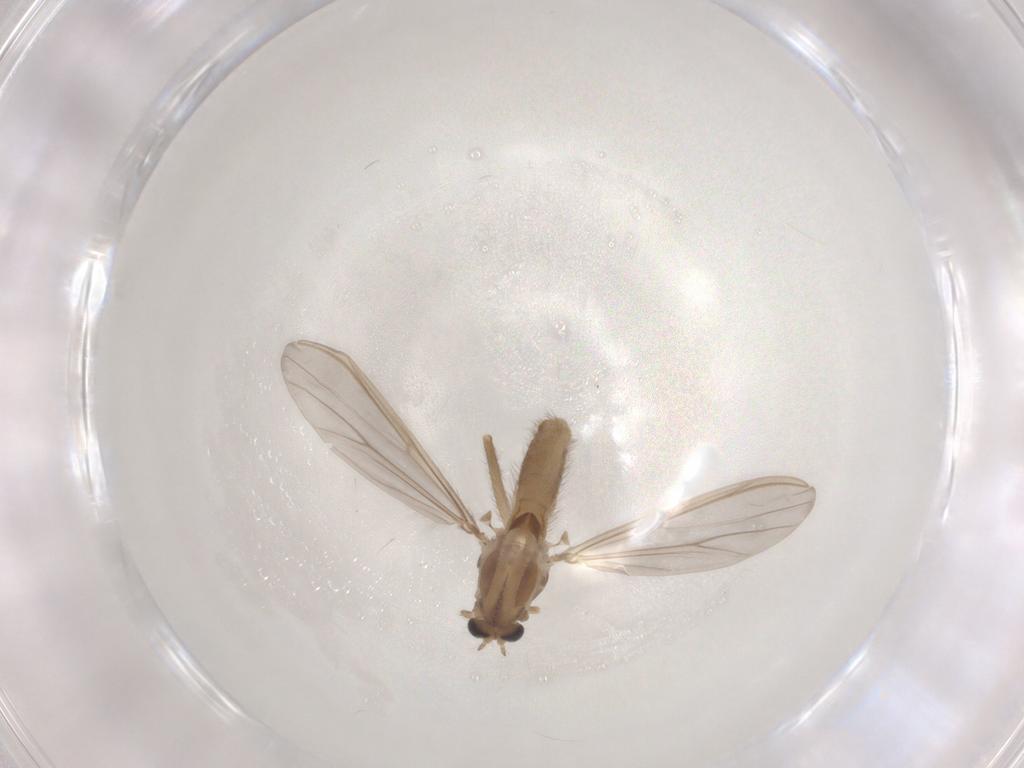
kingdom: Animalia
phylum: Arthropoda
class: Insecta
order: Diptera
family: Chironomidae
